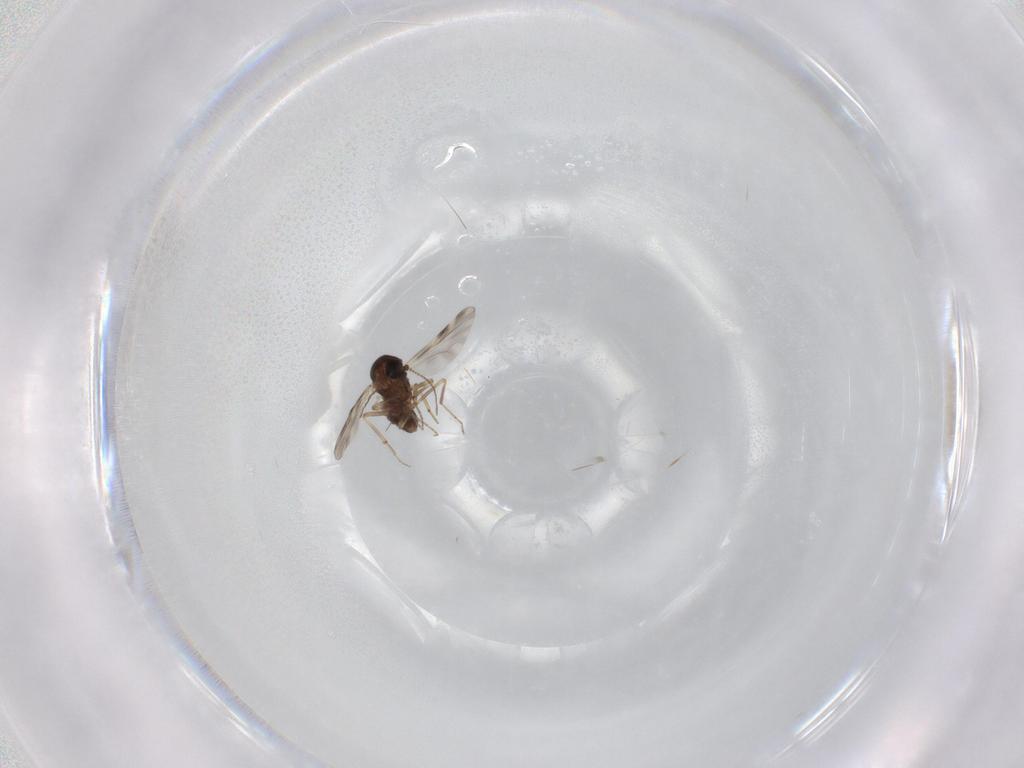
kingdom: Animalia
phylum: Arthropoda
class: Insecta
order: Diptera
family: Ceratopogonidae
